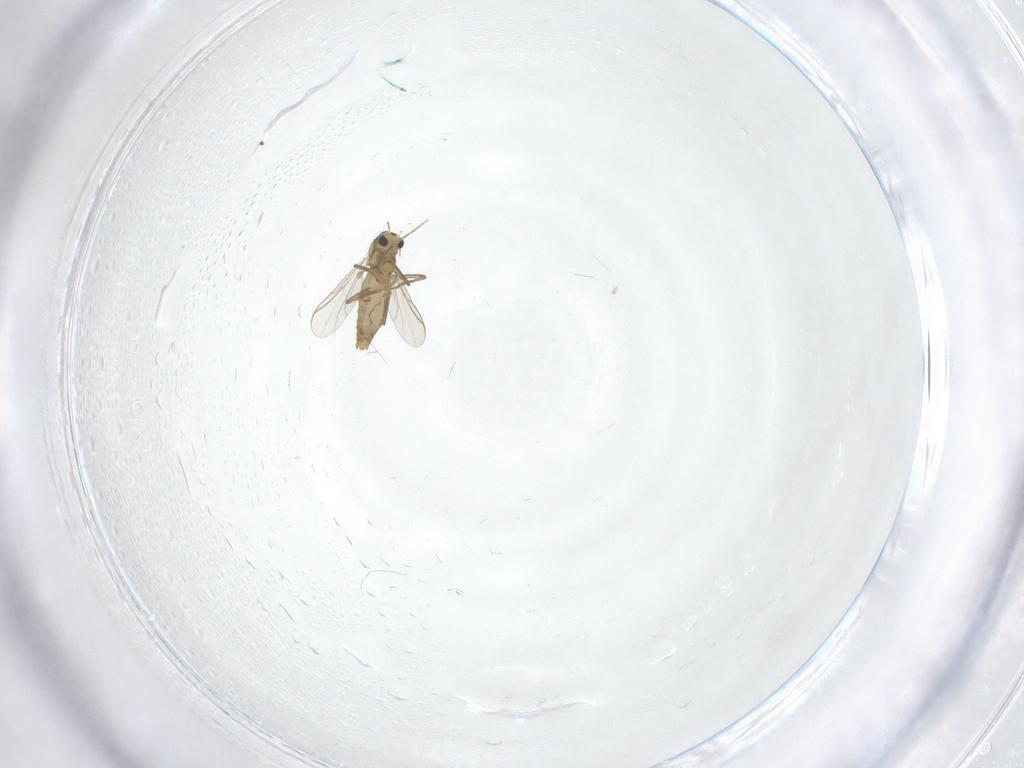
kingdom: Animalia
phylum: Arthropoda
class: Insecta
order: Diptera
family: Chironomidae
